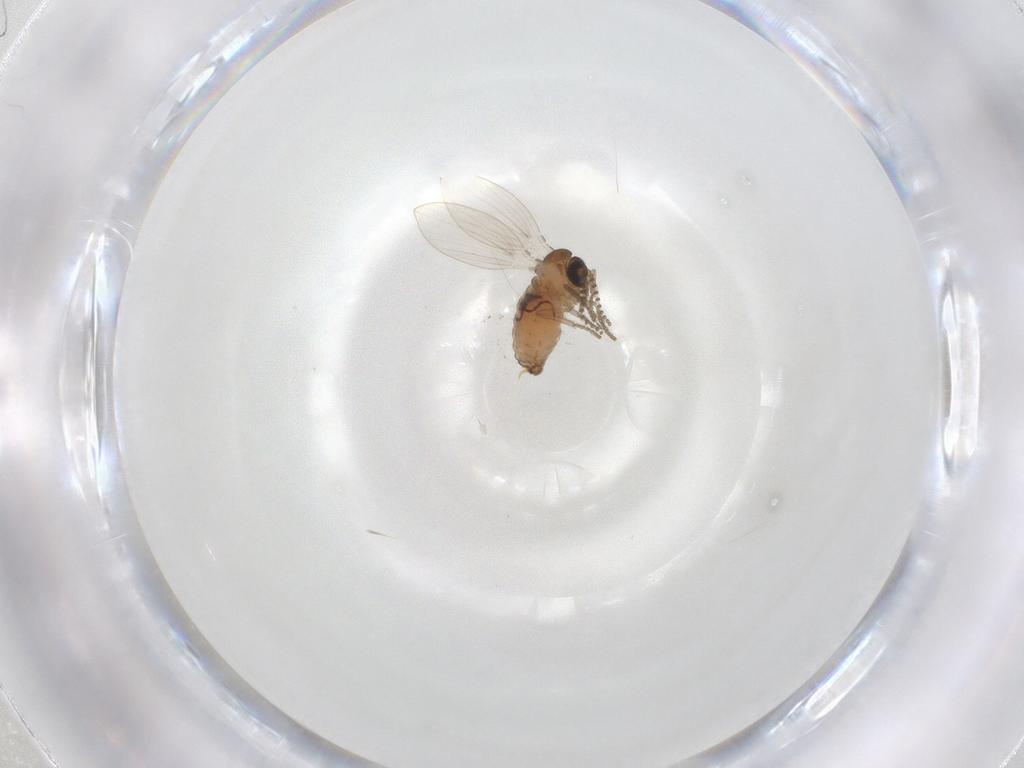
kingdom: Animalia
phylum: Arthropoda
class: Insecta
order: Diptera
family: Psychodidae
